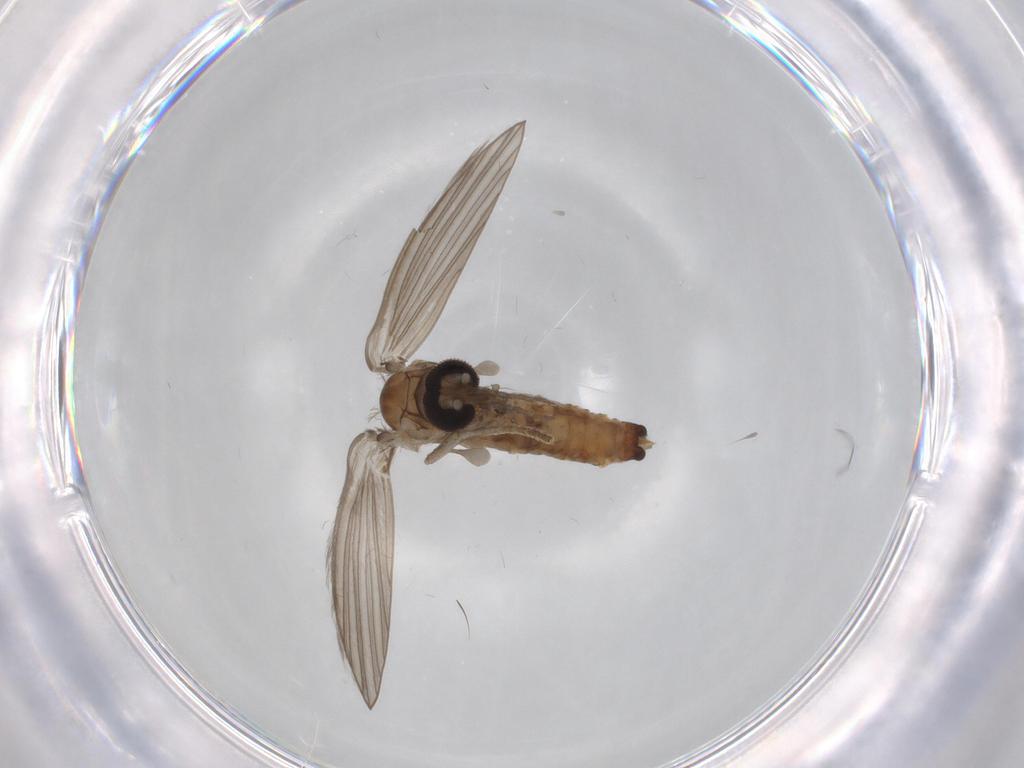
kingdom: Animalia
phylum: Arthropoda
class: Insecta
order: Diptera
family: Cecidomyiidae
